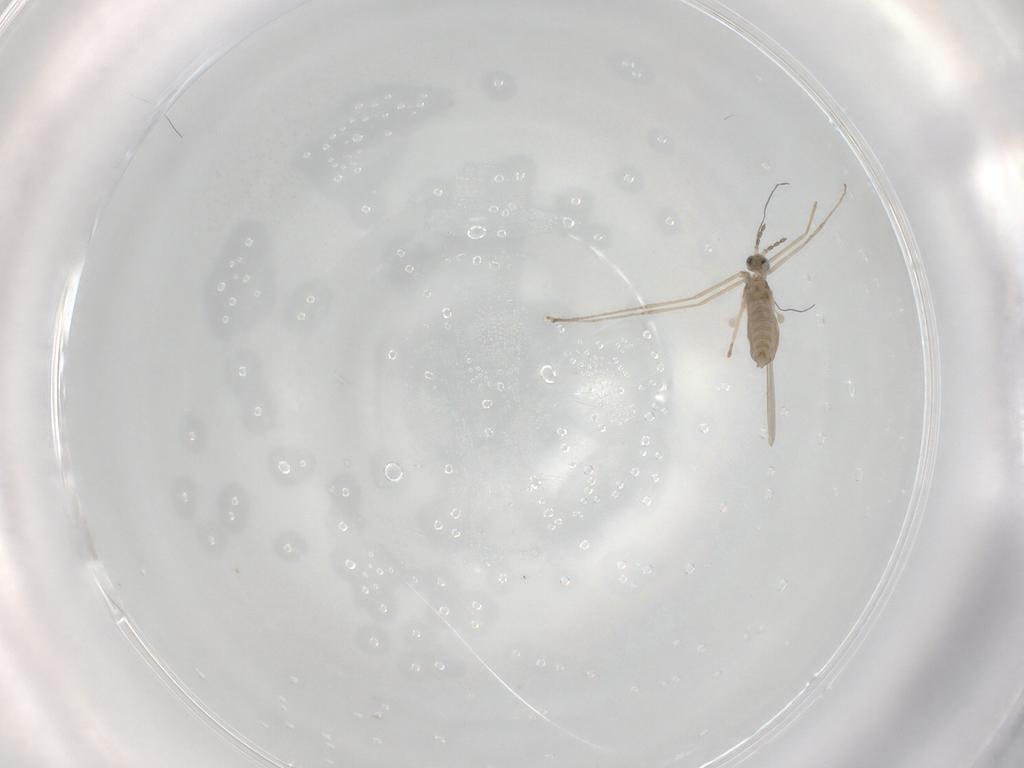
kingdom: Animalia
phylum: Arthropoda
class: Insecta
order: Diptera
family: Cecidomyiidae
